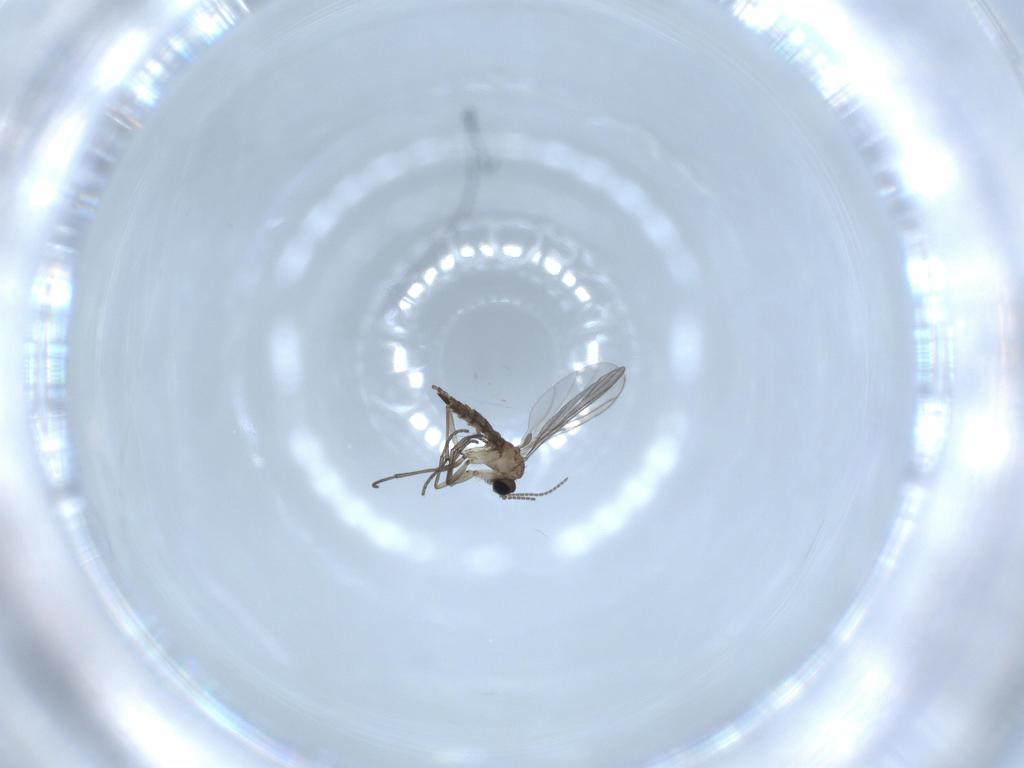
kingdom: Animalia
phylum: Arthropoda
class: Insecta
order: Diptera
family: Sciaridae
